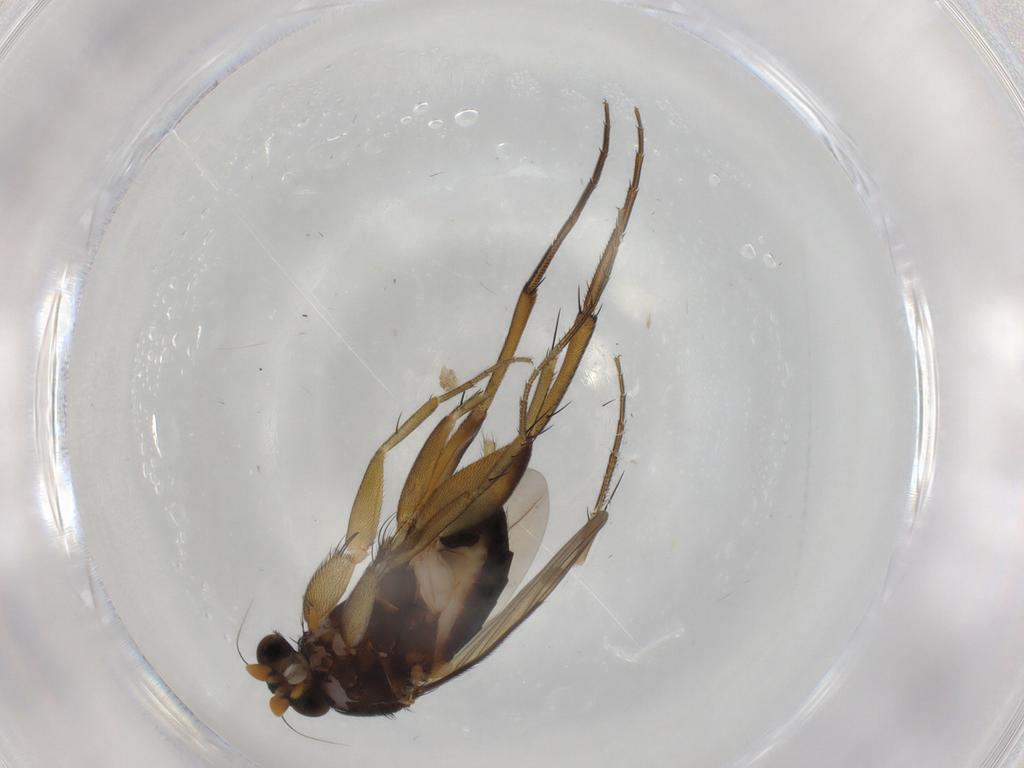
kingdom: Animalia
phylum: Arthropoda
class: Insecta
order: Diptera
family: Phoridae
